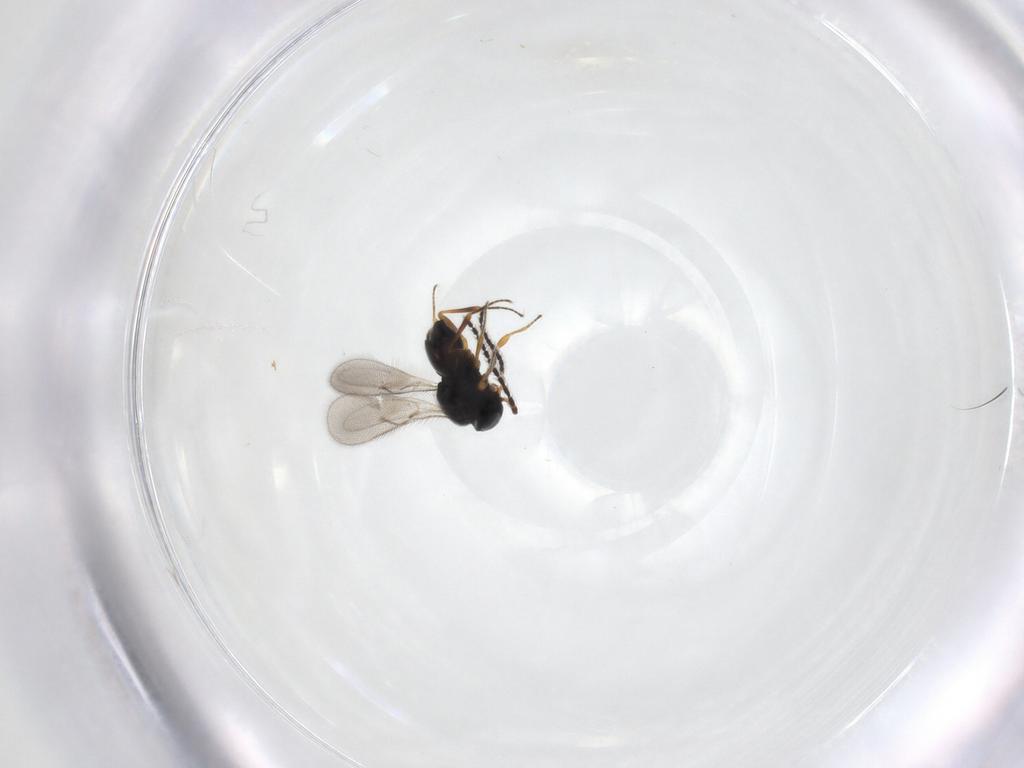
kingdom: Animalia
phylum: Arthropoda
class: Insecta
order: Hymenoptera
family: Scelionidae
